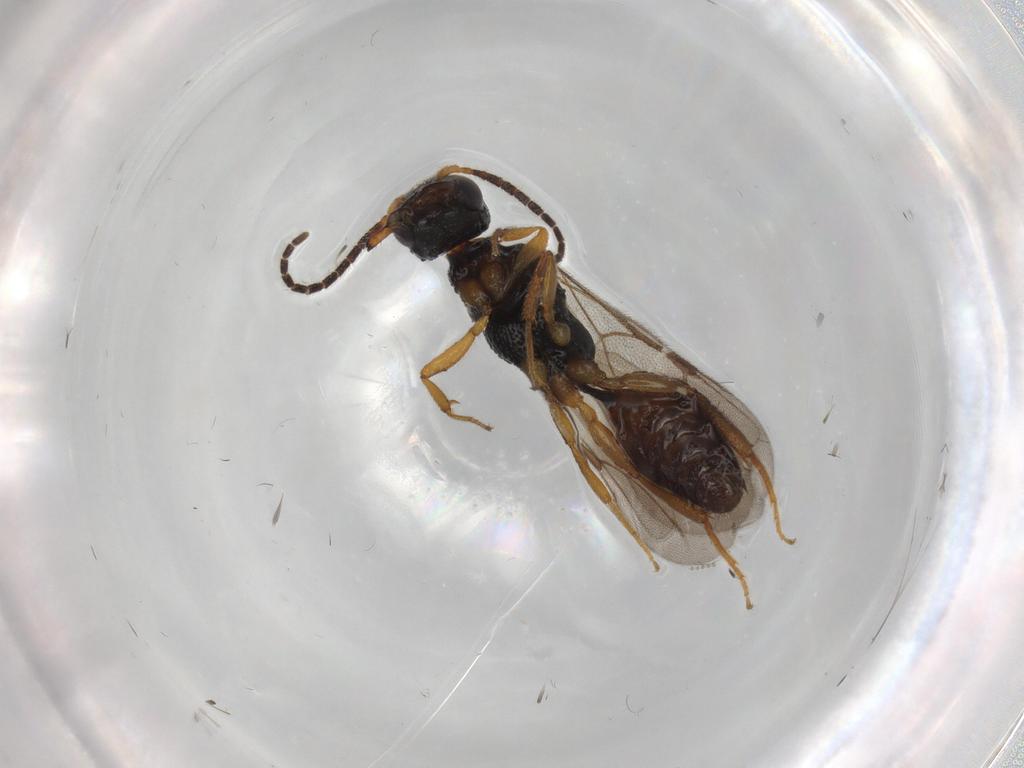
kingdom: Animalia
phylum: Arthropoda
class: Insecta
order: Hymenoptera
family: Bethylidae
